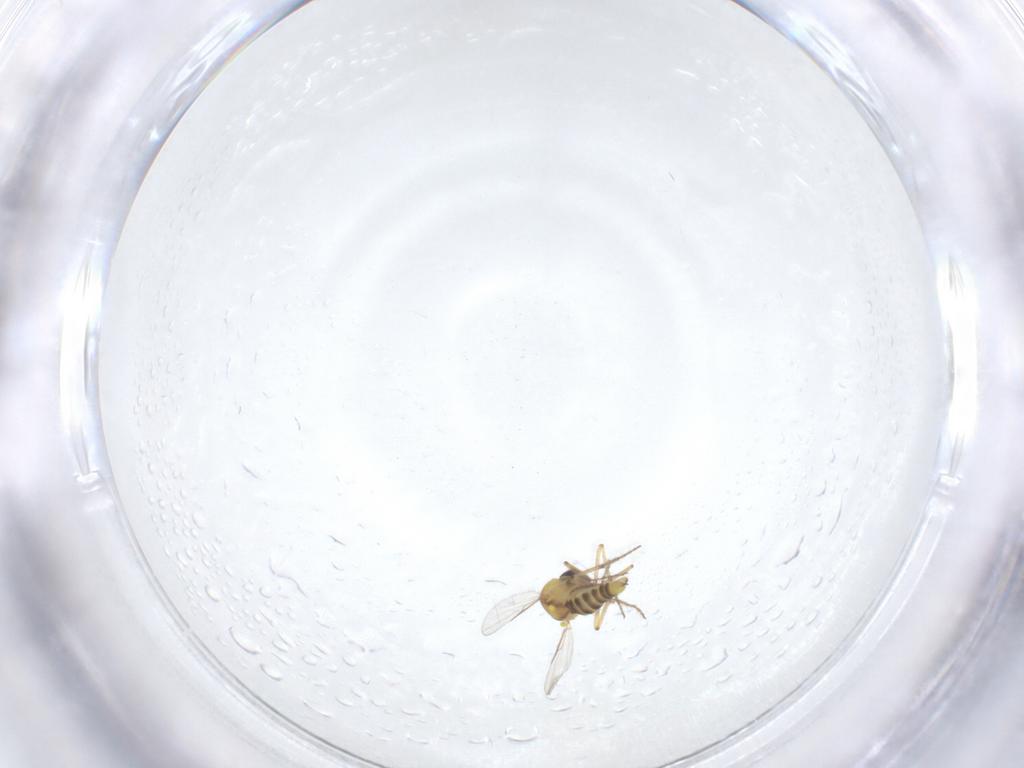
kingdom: Animalia
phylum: Arthropoda
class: Insecta
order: Diptera
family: Ceratopogonidae
